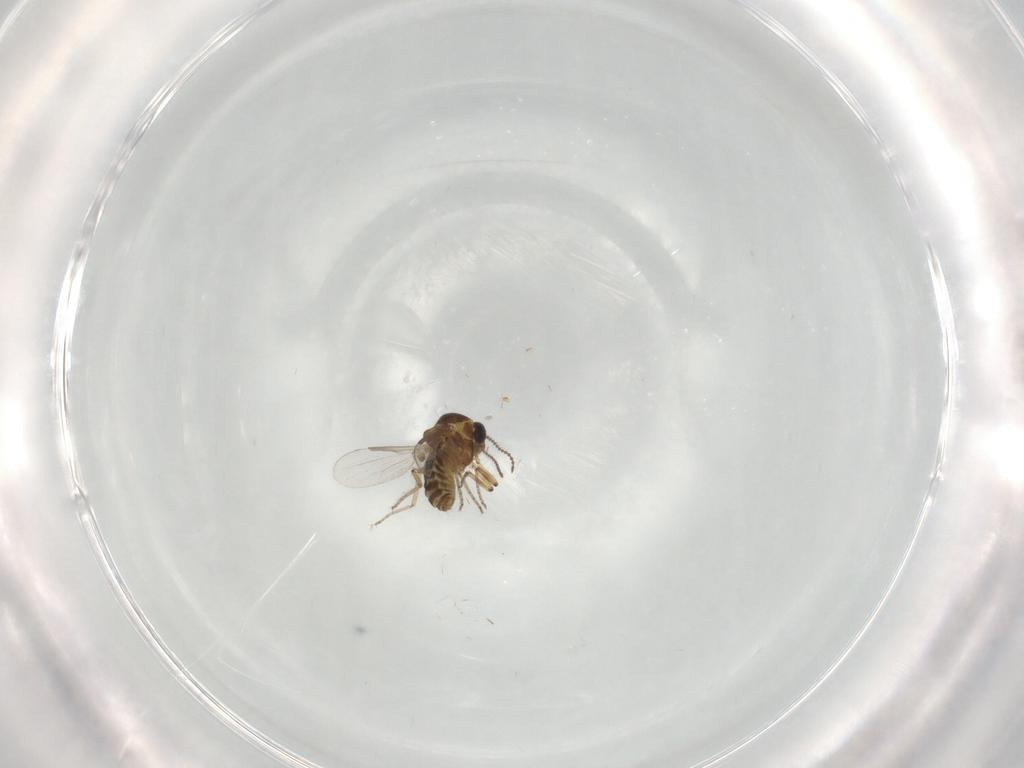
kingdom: Animalia
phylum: Arthropoda
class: Insecta
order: Diptera
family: Ceratopogonidae
